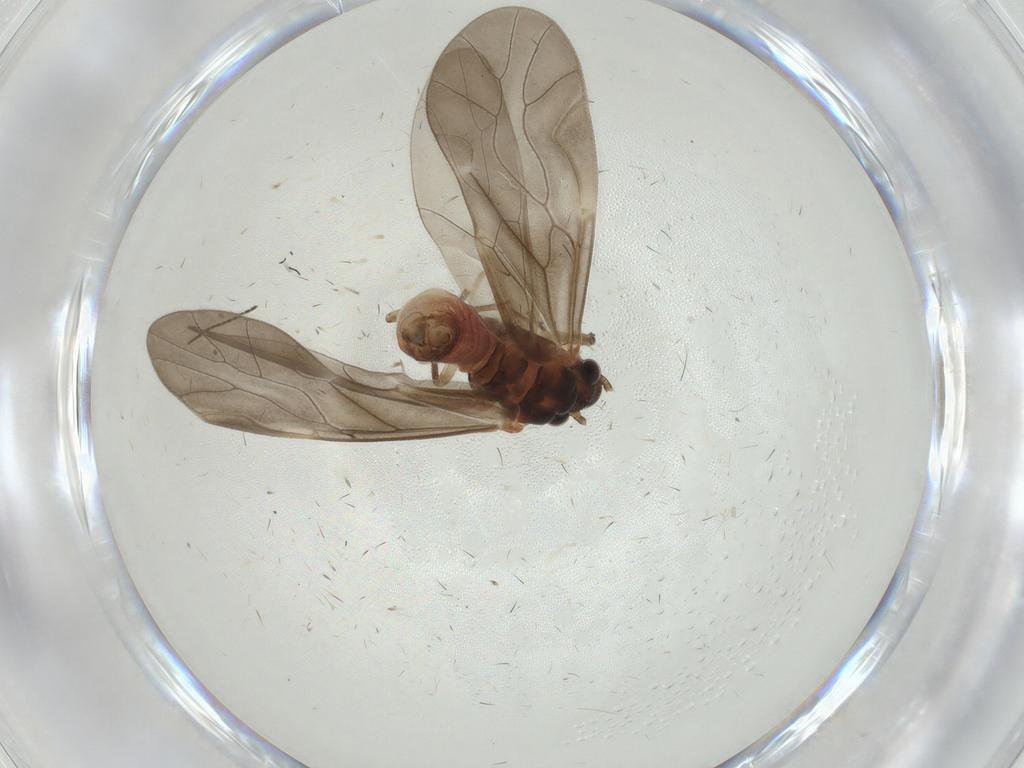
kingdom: Animalia
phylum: Arthropoda
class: Insecta
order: Psocodea
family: Caeciliusidae
